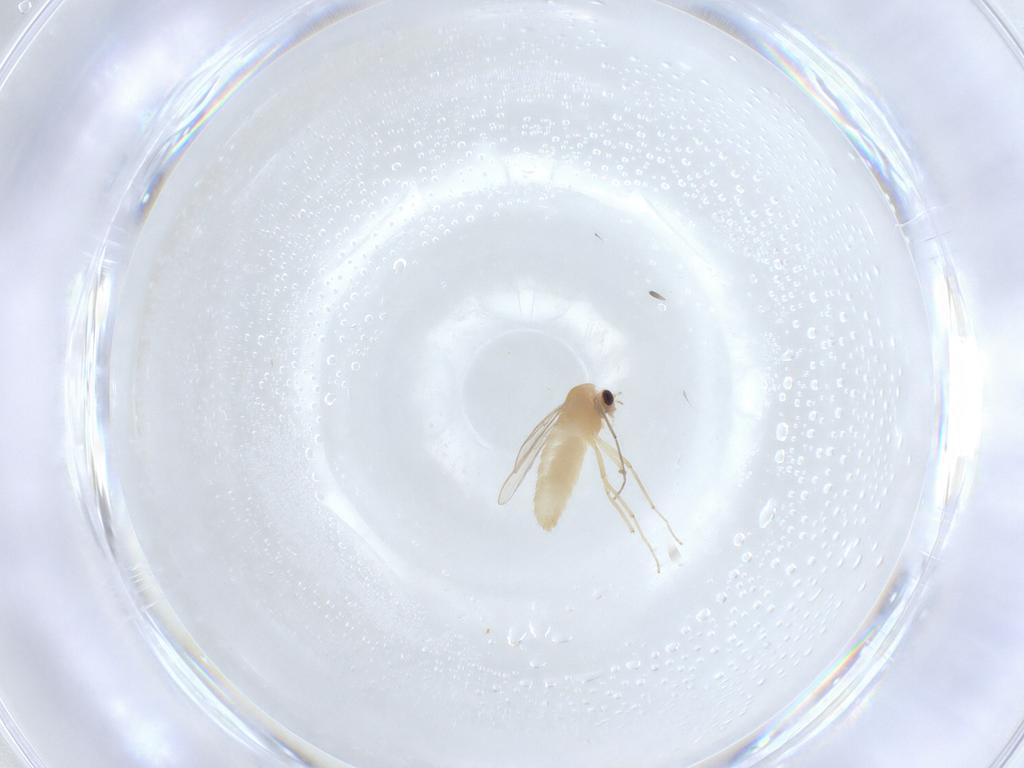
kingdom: Animalia
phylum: Arthropoda
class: Insecta
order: Diptera
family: Chironomidae
